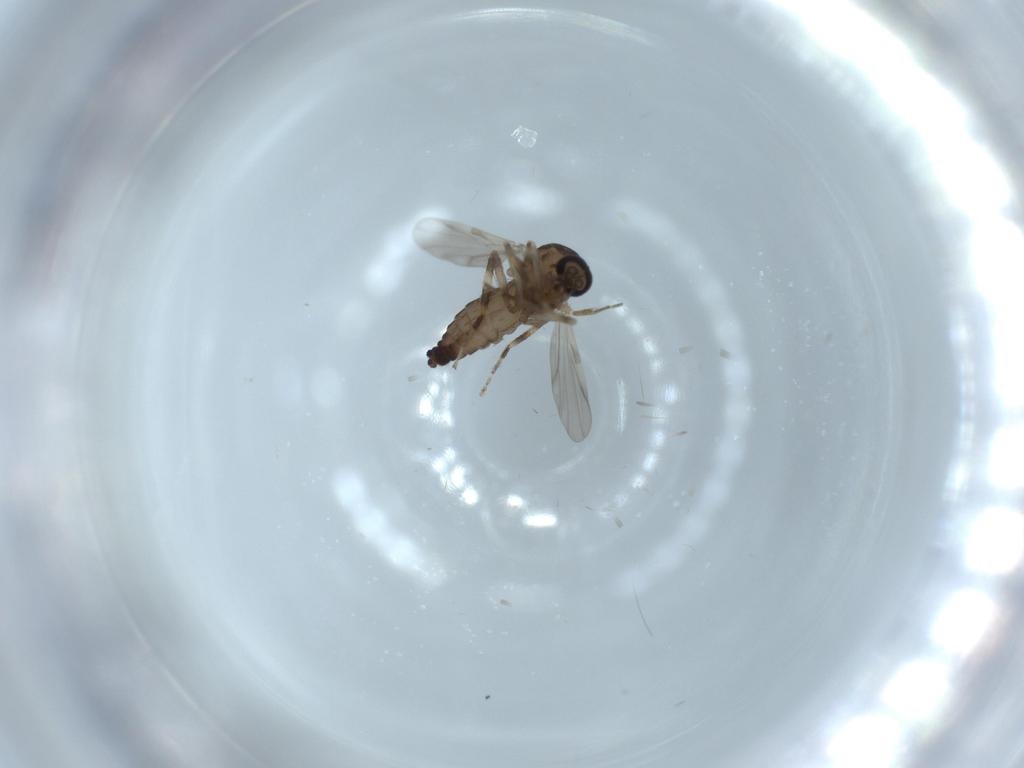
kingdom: Animalia
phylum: Arthropoda
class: Insecta
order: Diptera
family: Ceratopogonidae
